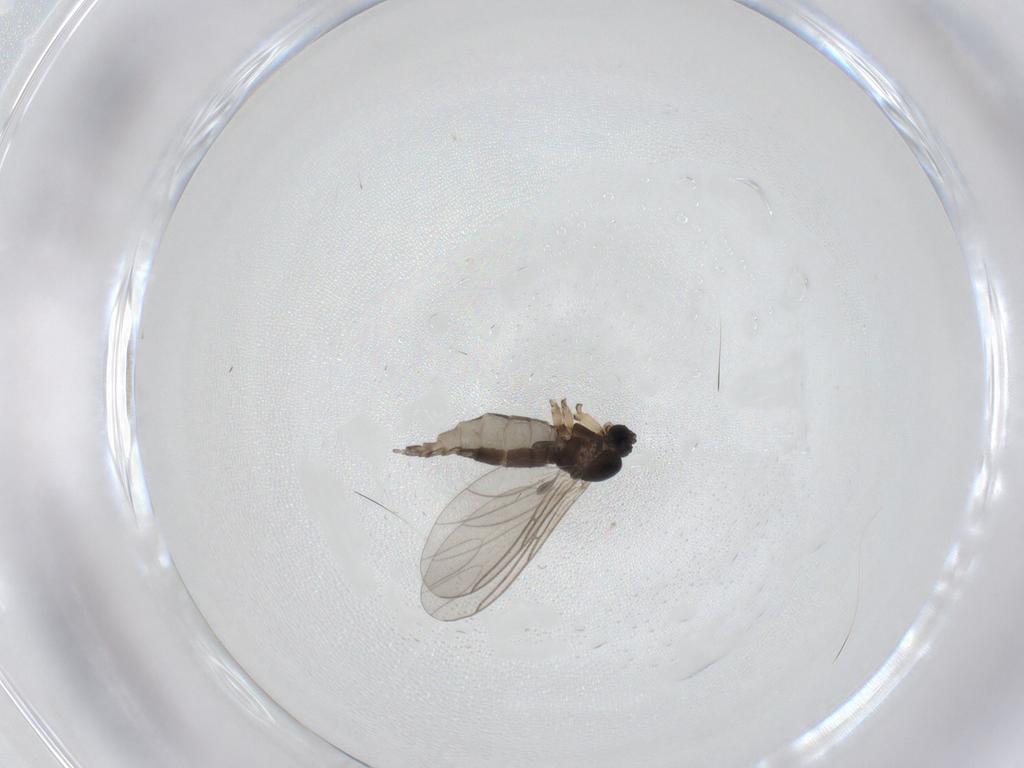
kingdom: Animalia
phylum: Arthropoda
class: Insecta
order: Diptera
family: Sciaridae
